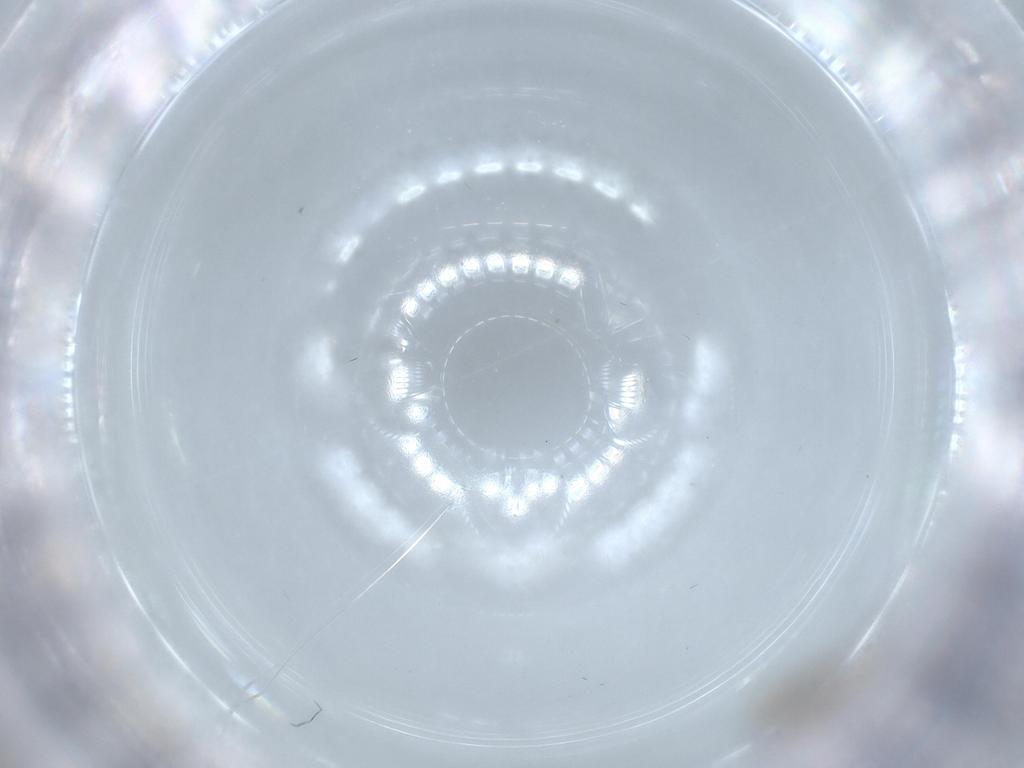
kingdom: Animalia
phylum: Arthropoda
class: Insecta
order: Diptera
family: Cecidomyiidae
